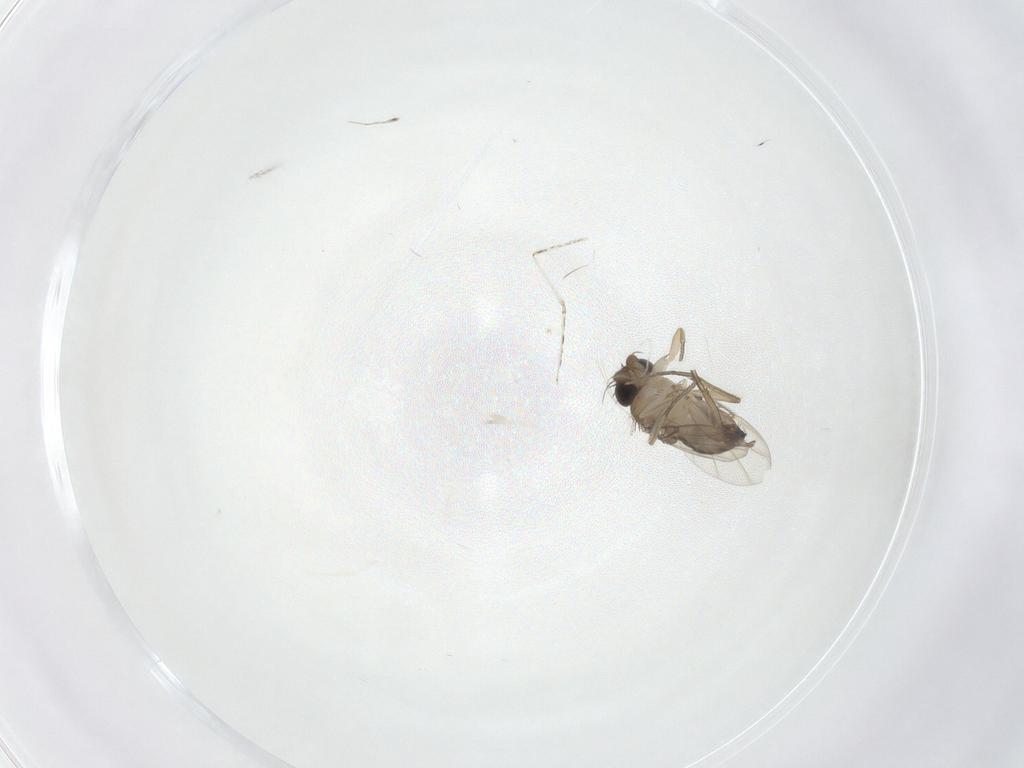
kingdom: Animalia
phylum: Arthropoda
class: Insecta
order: Diptera
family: Cecidomyiidae
